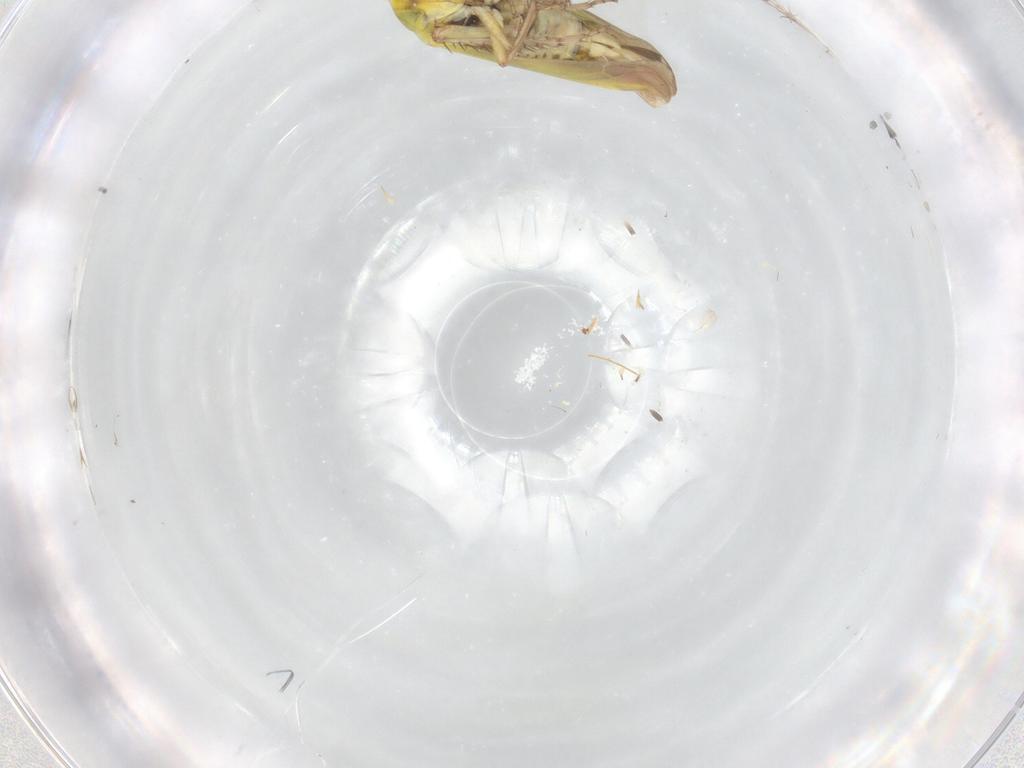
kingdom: Animalia
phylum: Arthropoda
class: Insecta
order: Hemiptera
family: Cicadellidae
